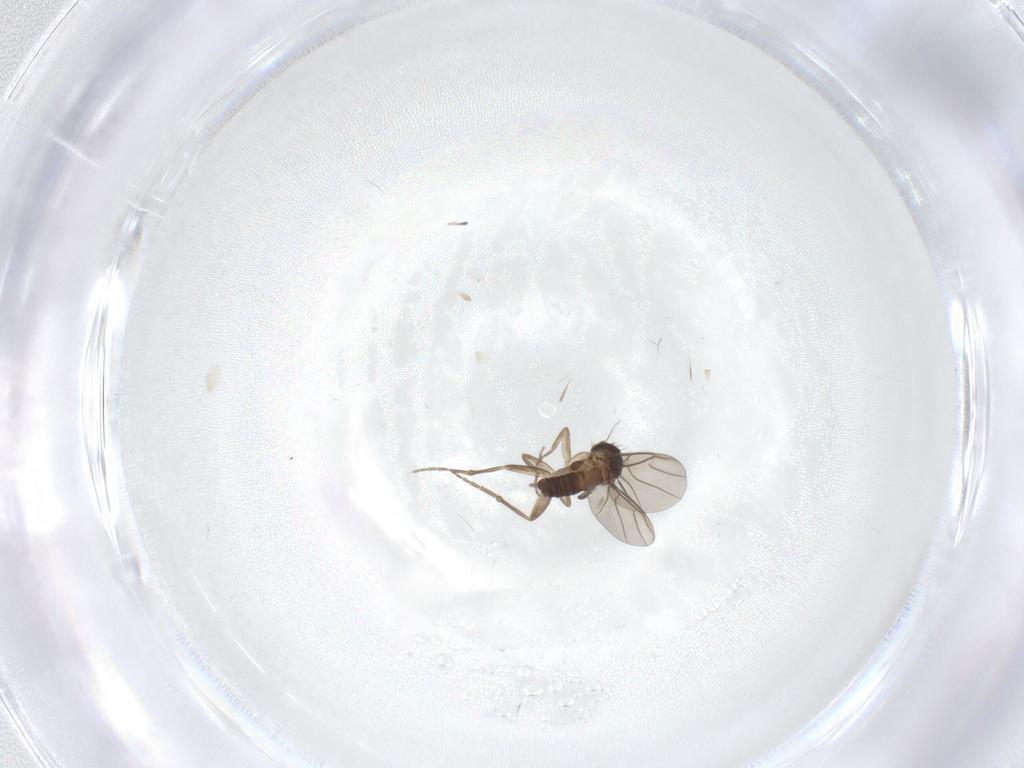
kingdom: Animalia
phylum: Arthropoda
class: Insecta
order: Diptera
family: Phoridae
